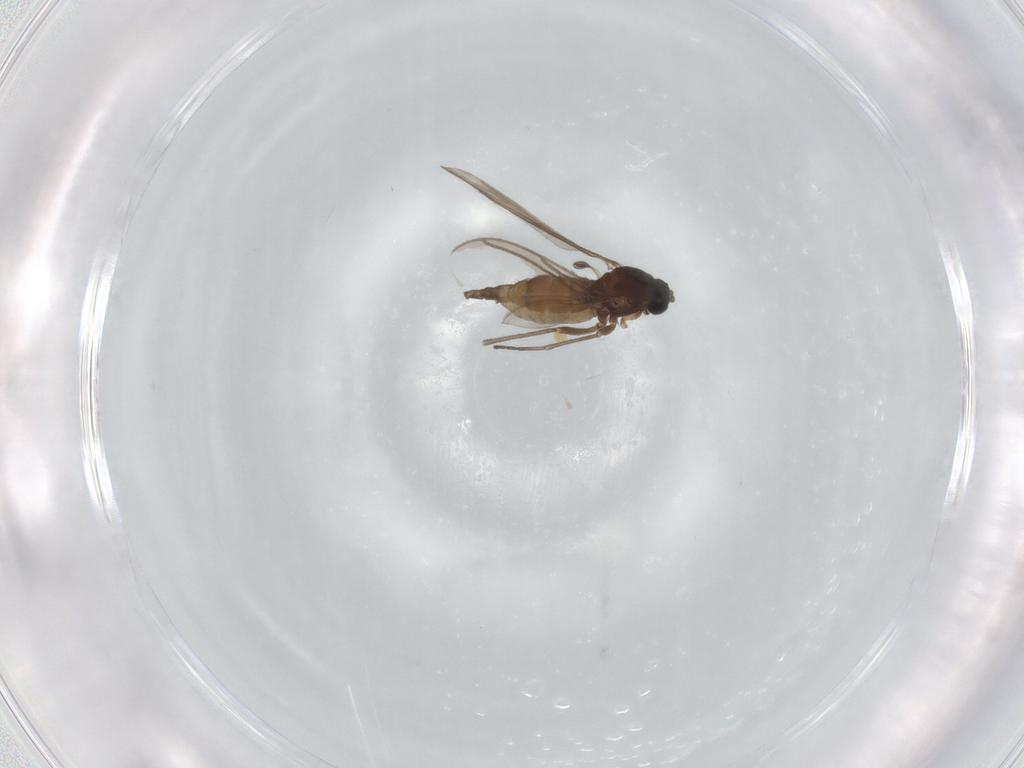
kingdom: Animalia
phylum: Arthropoda
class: Insecta
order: Diptera
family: Sciaridae
